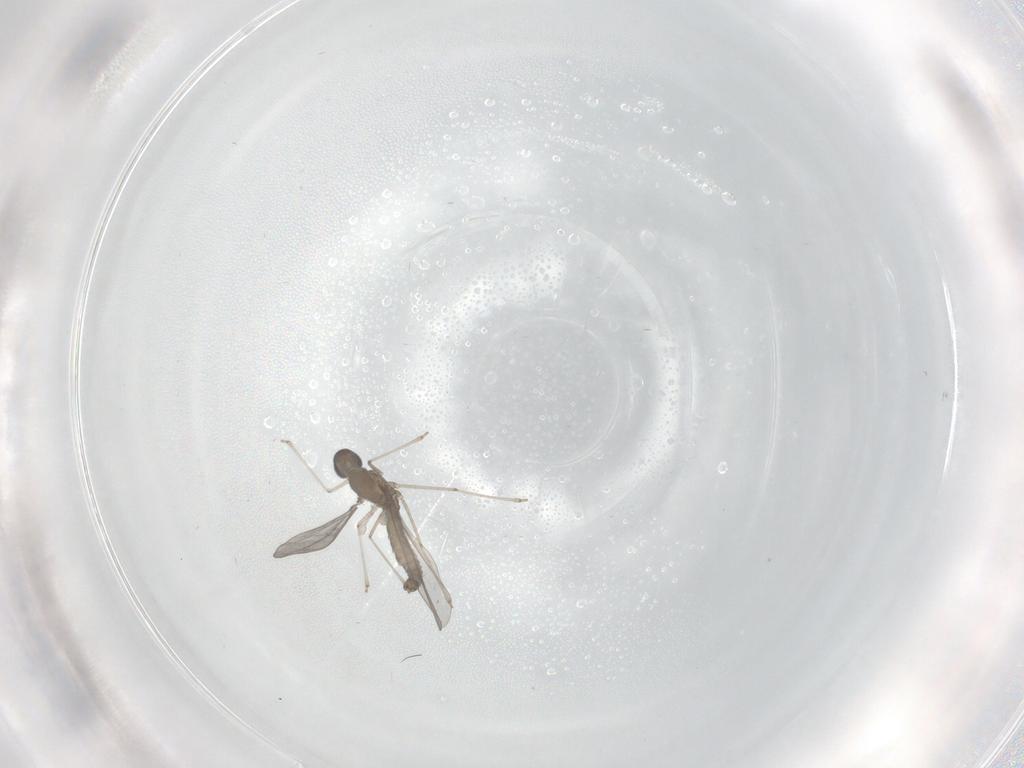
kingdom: Animalia
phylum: Arthropoda
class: Insecta
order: Diptera
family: Cecidomyiidae
